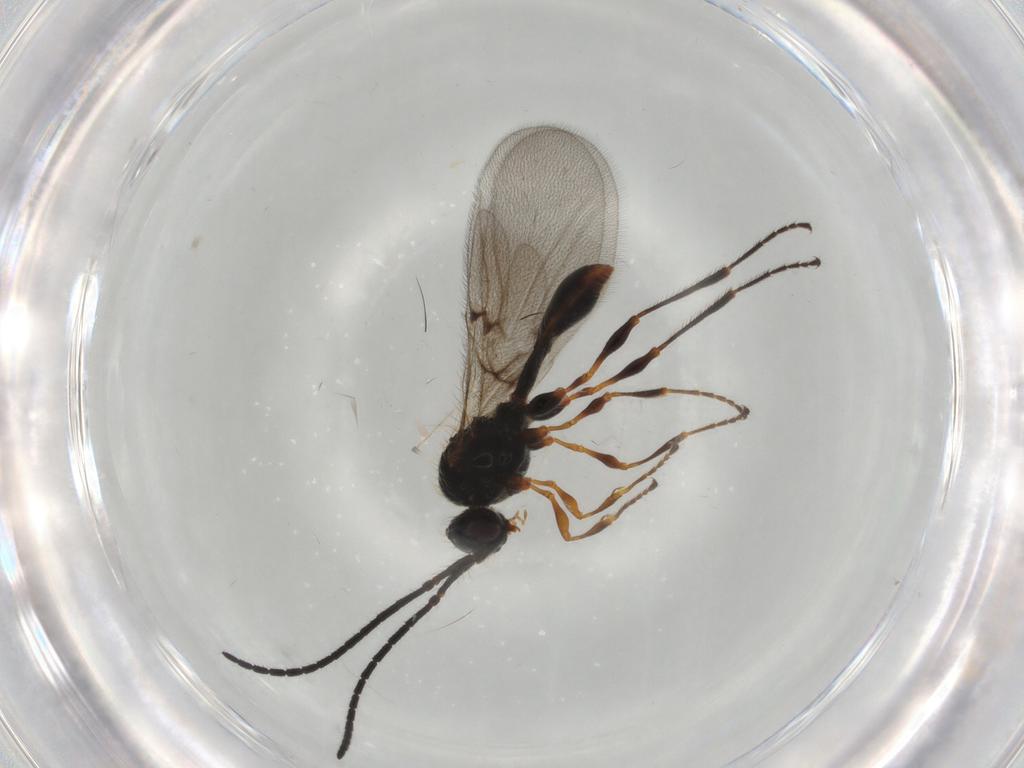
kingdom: Animalia
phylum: Arthropoda
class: Insecta
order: Hymenoptera
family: Diapriidae
